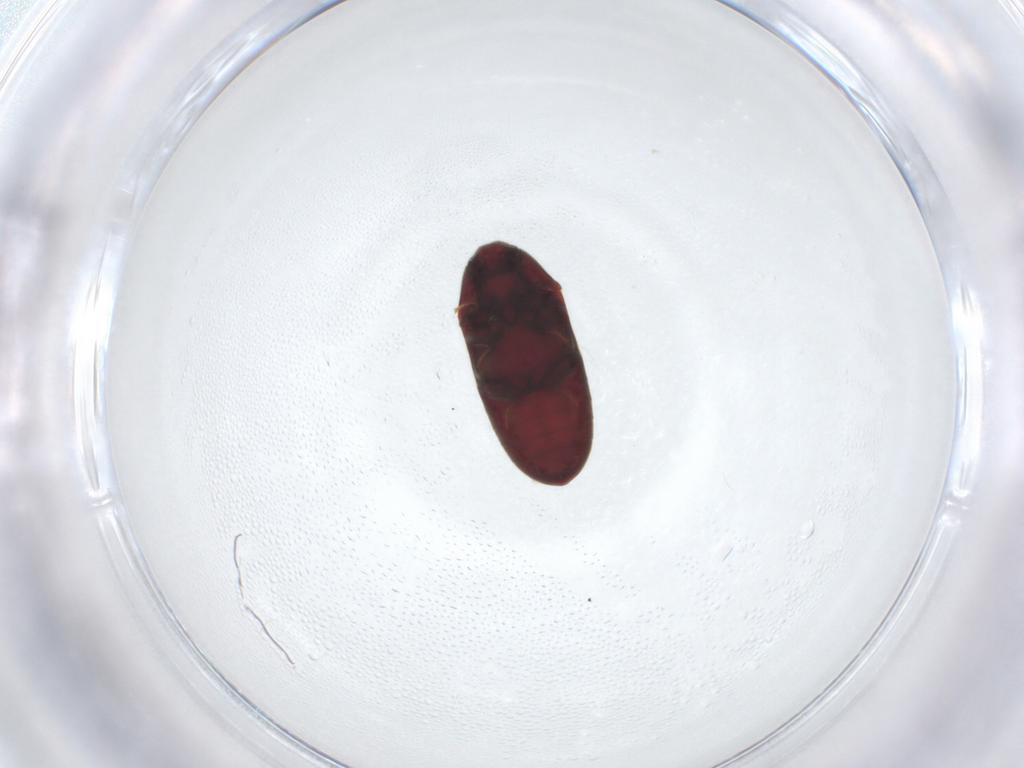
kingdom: Animalia
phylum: Arthropoda
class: Insecta
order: Coleoptera
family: Throscidae
